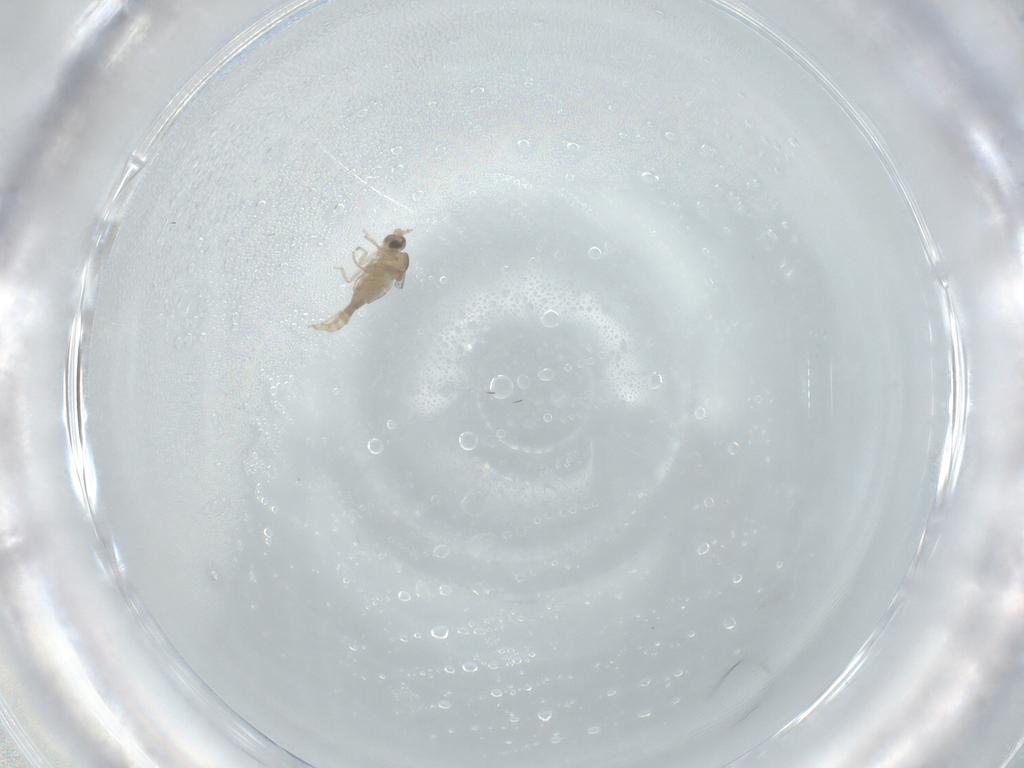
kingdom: Animalia
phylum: Arthropoda
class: Insecta
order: Diptera
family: Cecidomyiidae
